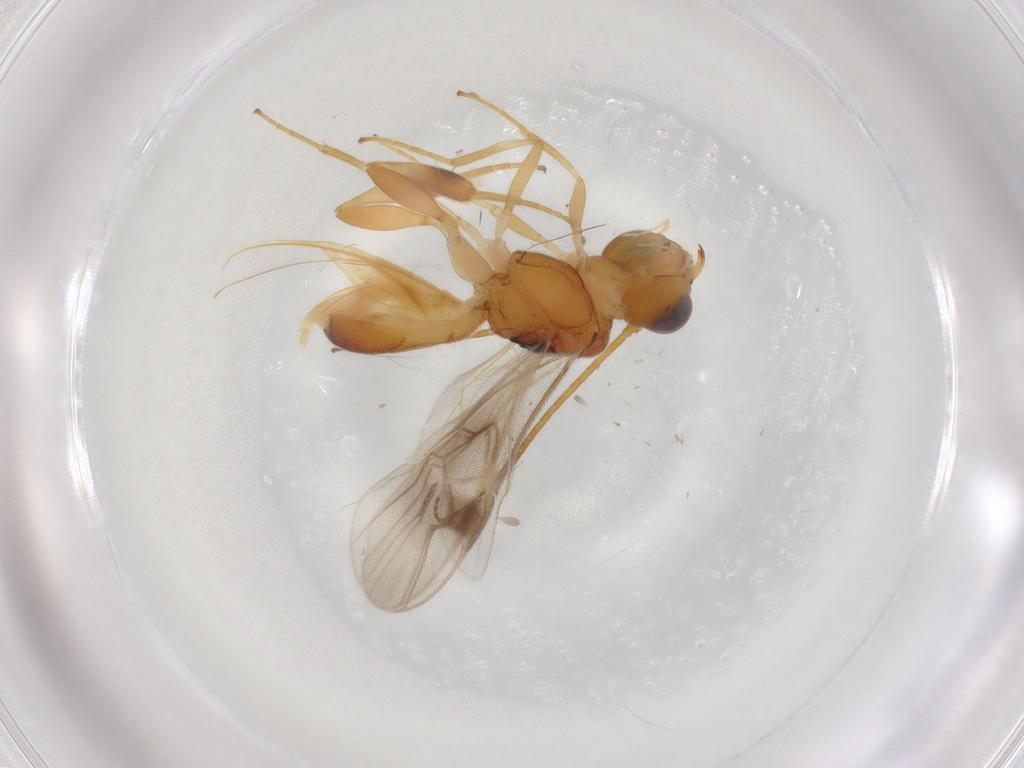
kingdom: Animalia
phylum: Arthropoda
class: Insecta
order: Hymenoptera
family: Braconidae
